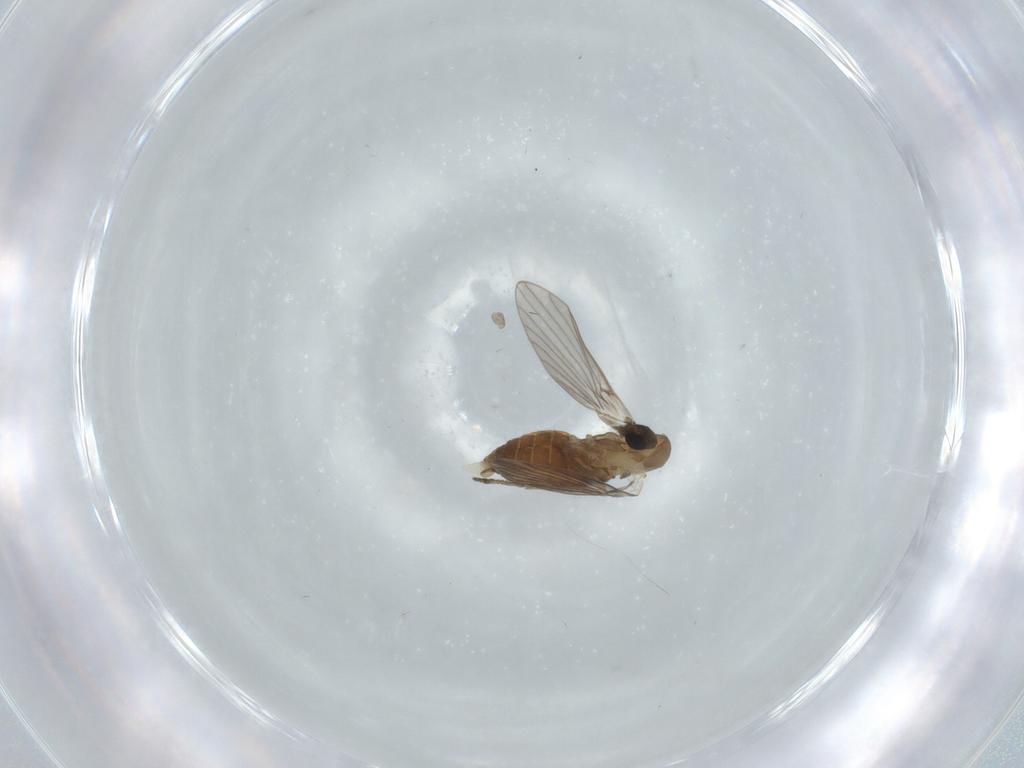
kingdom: Animalia
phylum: Arthropoda
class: Insecta
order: Diptera
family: Psychodidae
